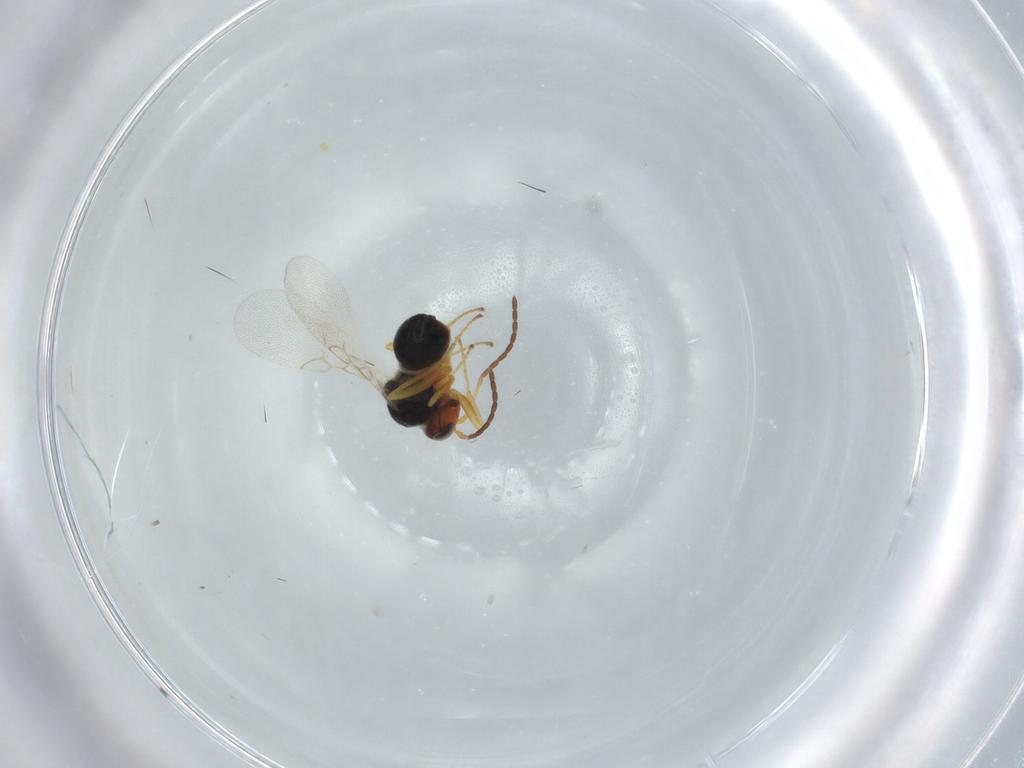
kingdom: Animalia
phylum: Arthropoda
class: Insecta
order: Hymenoptera
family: Figitidae
